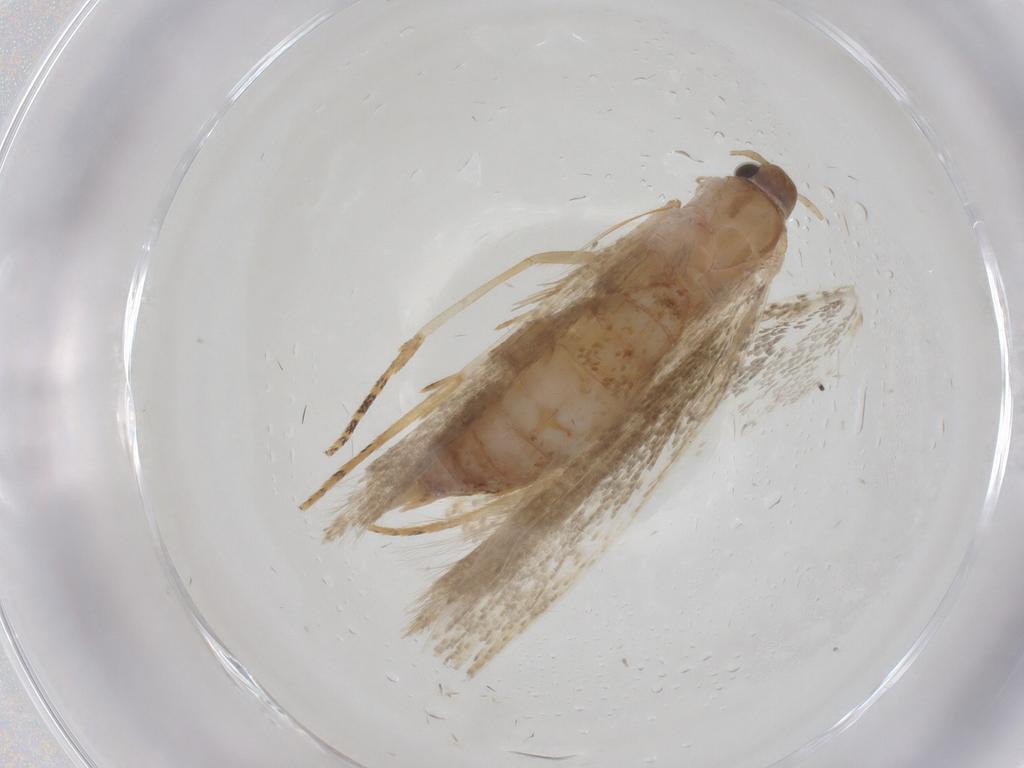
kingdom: Animalia
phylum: Arthropoda
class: Insecta
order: Lepidoptera
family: Crambidae
